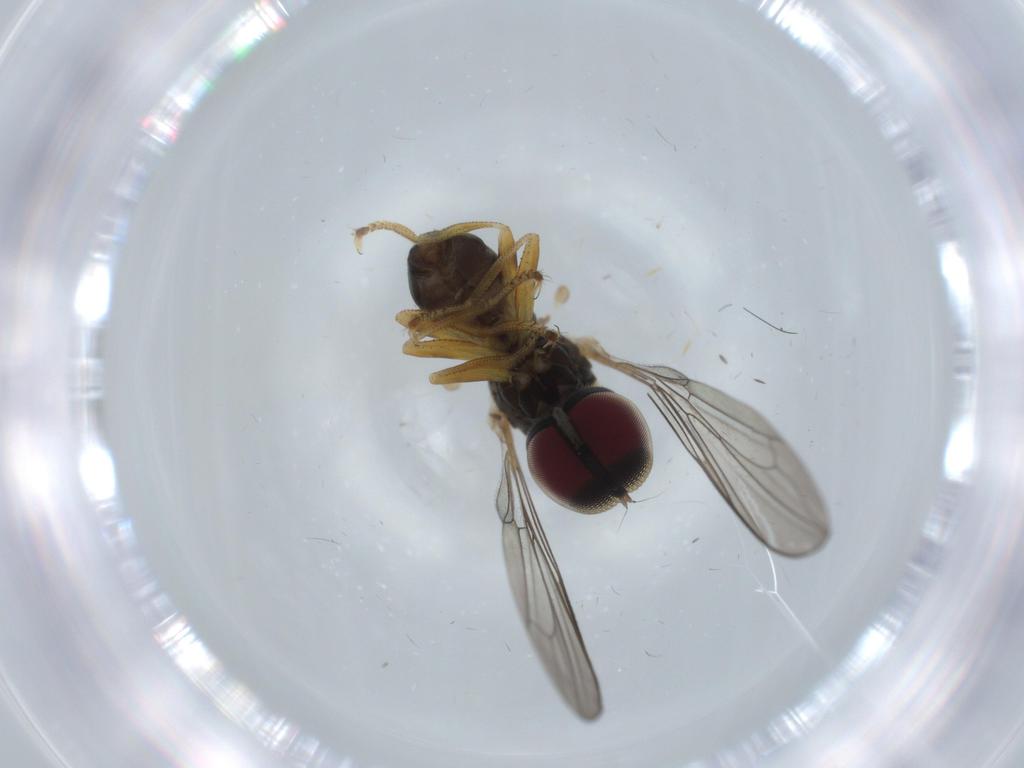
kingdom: Animalia
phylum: Arthropoda
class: Insecta
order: Diptera
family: Pipunculidae
